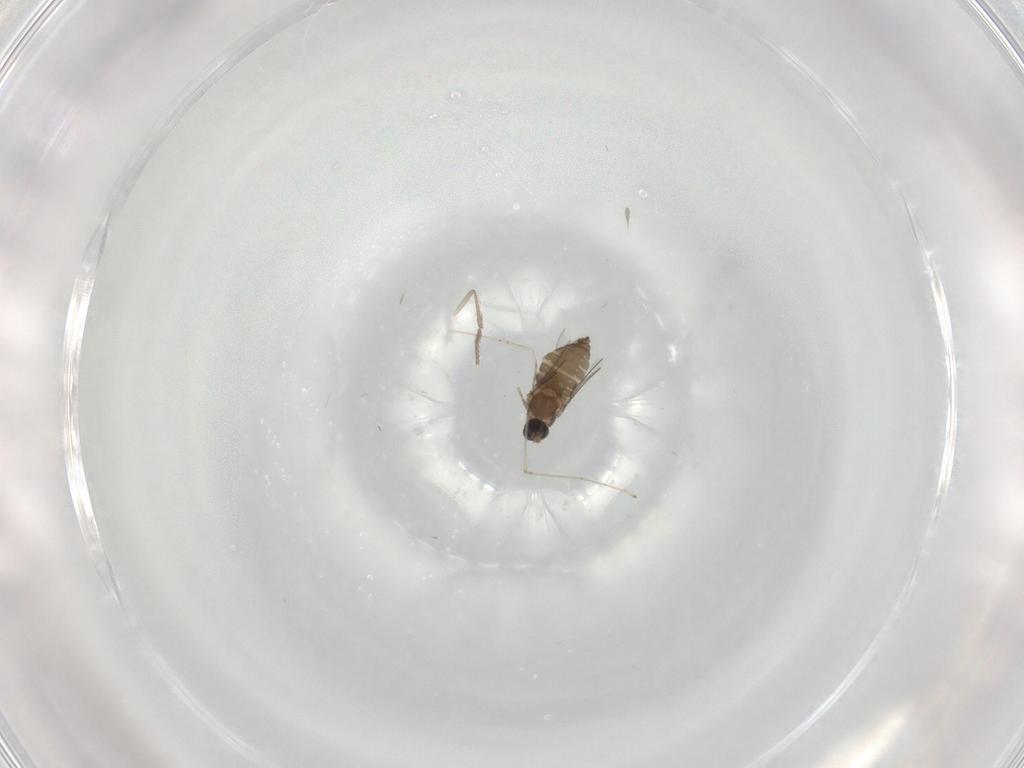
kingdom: Animalia
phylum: Arthropoda
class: Insecta
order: Diptera
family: Cecidomyiidae
